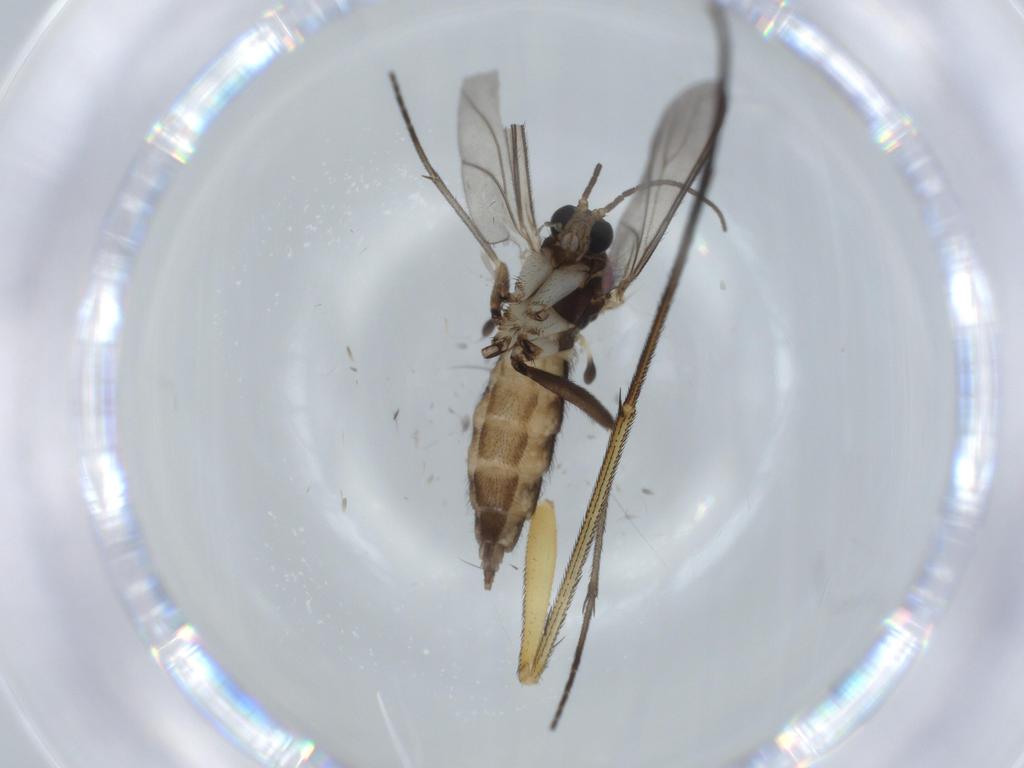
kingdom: Animalia
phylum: Arthropoda
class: Insecta
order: Diptera
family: Sciaridae
